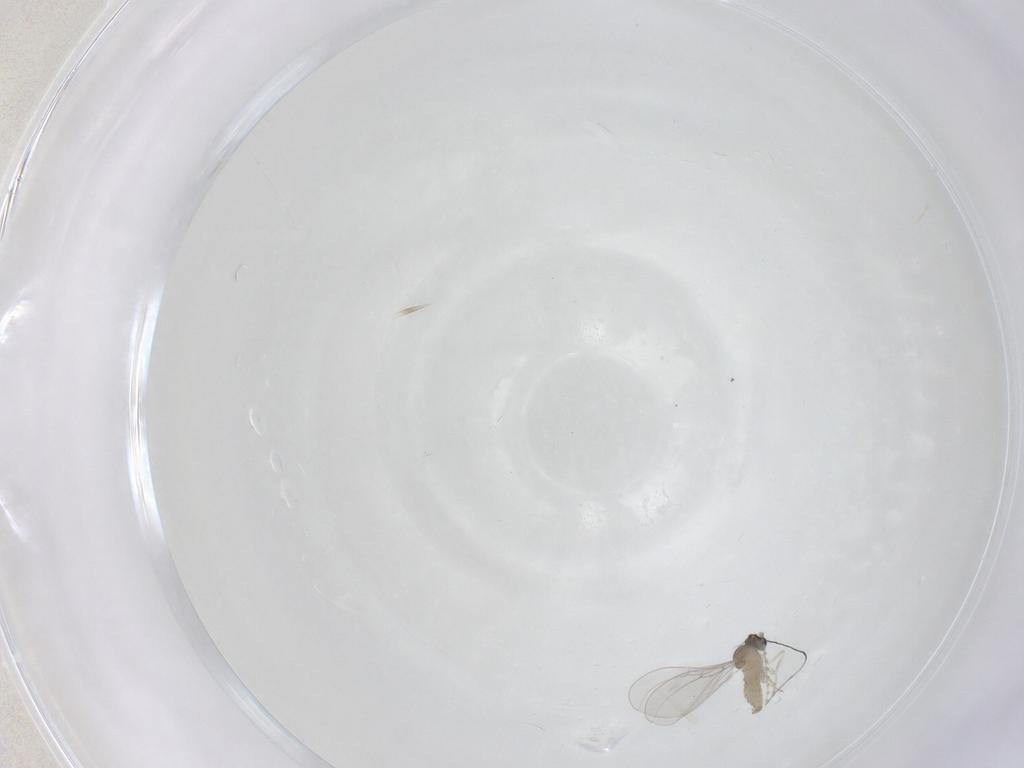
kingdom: Animalia
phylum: Arthropoda
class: Insecta
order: Diptera
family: Cecidomyiidae
